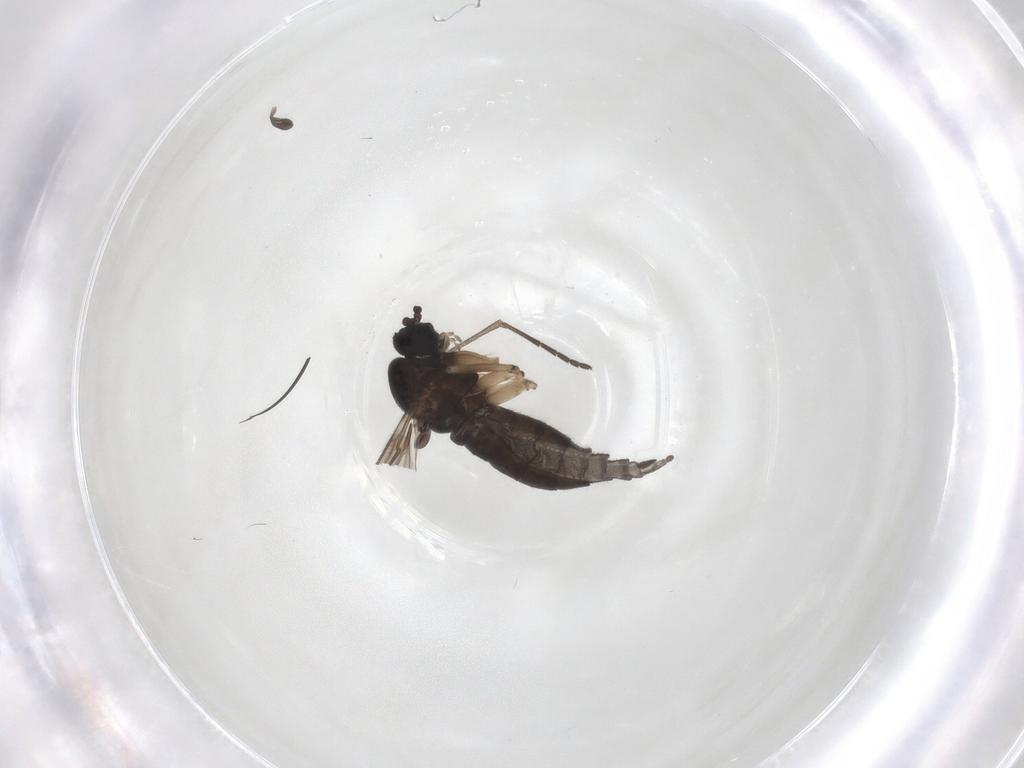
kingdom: Animalia
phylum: Arthropoda
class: Insecta
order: Diptera
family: Sciaridae
